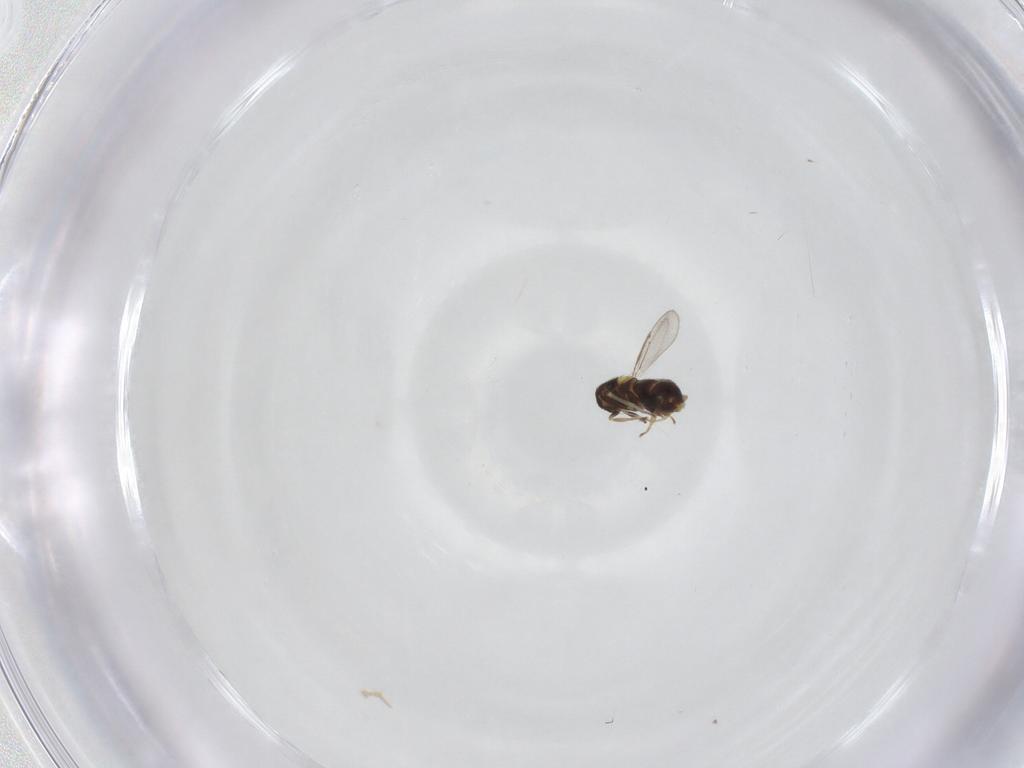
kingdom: Animalia
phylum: Arthropoda
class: Insecta
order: Hymenoptera
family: Aphelinidae
